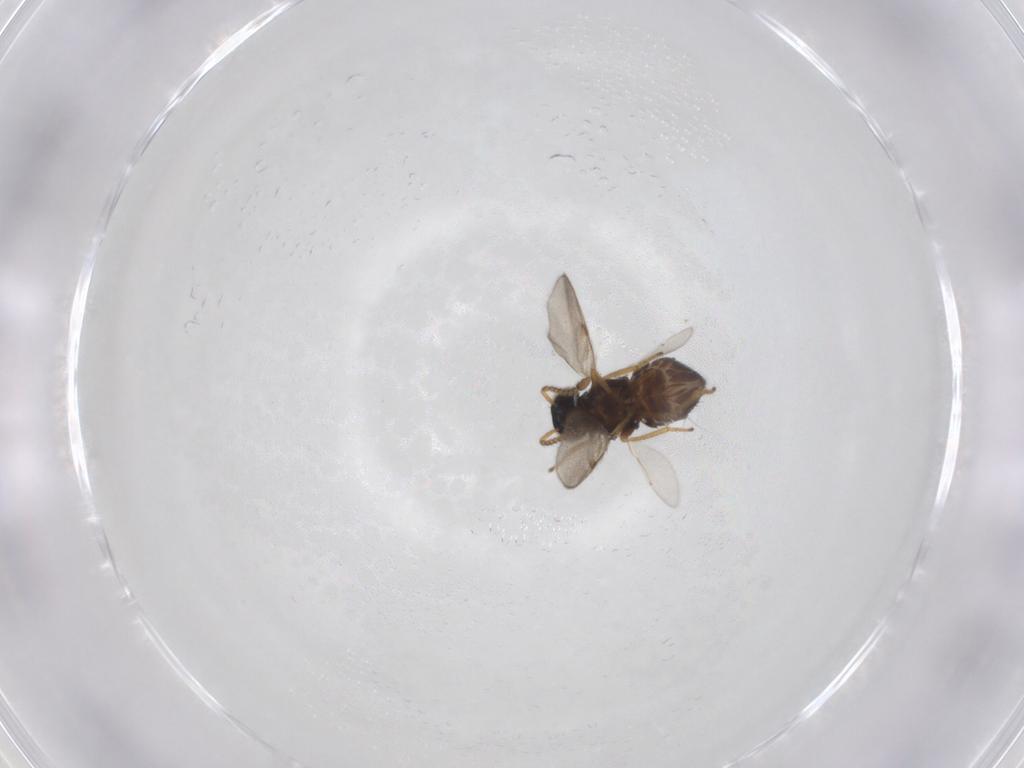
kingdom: Animalia
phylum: Arthropoda
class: Insecta
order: Hymenoptera
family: Encyrtidae
